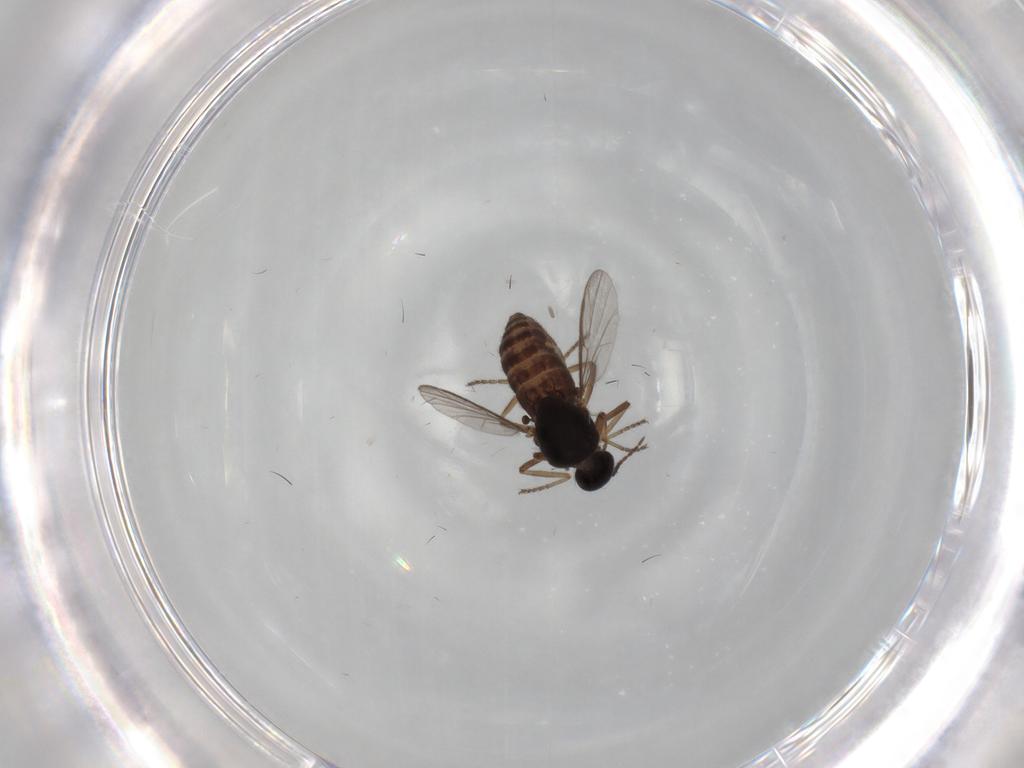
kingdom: Animalia
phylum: Arthropoda
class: Insecta
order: Diptera
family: Ceratopogonidae
